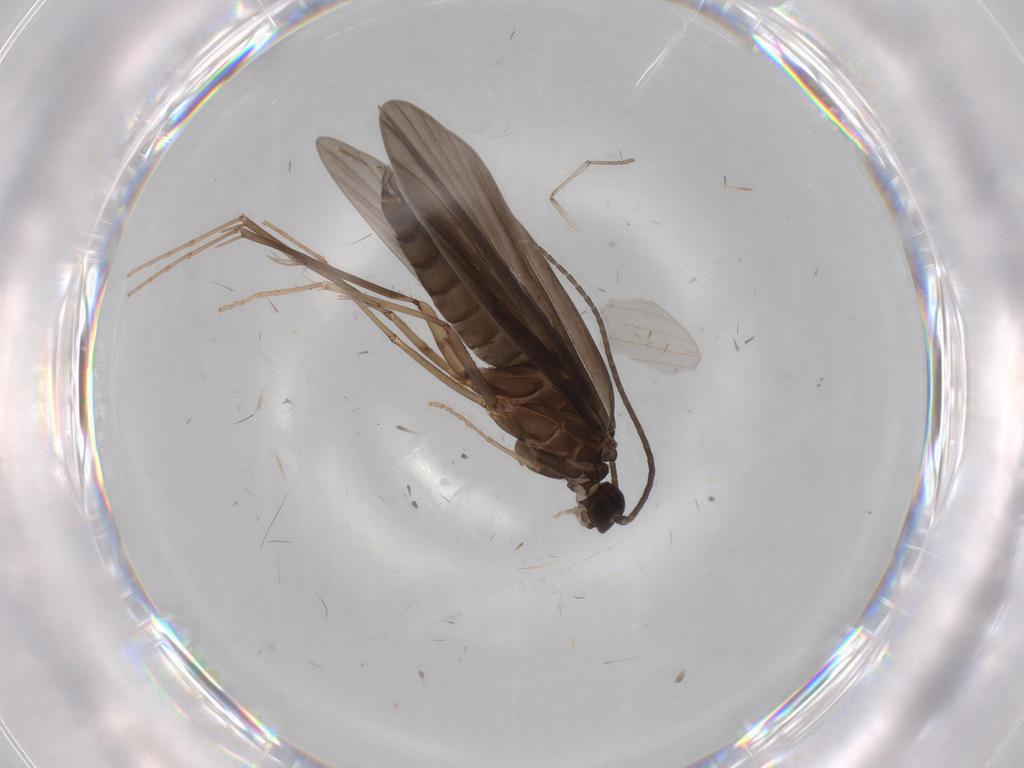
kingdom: Animalia
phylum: Arthropoda
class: Insecta
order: Trichoptera
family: Xiphocentronidae
